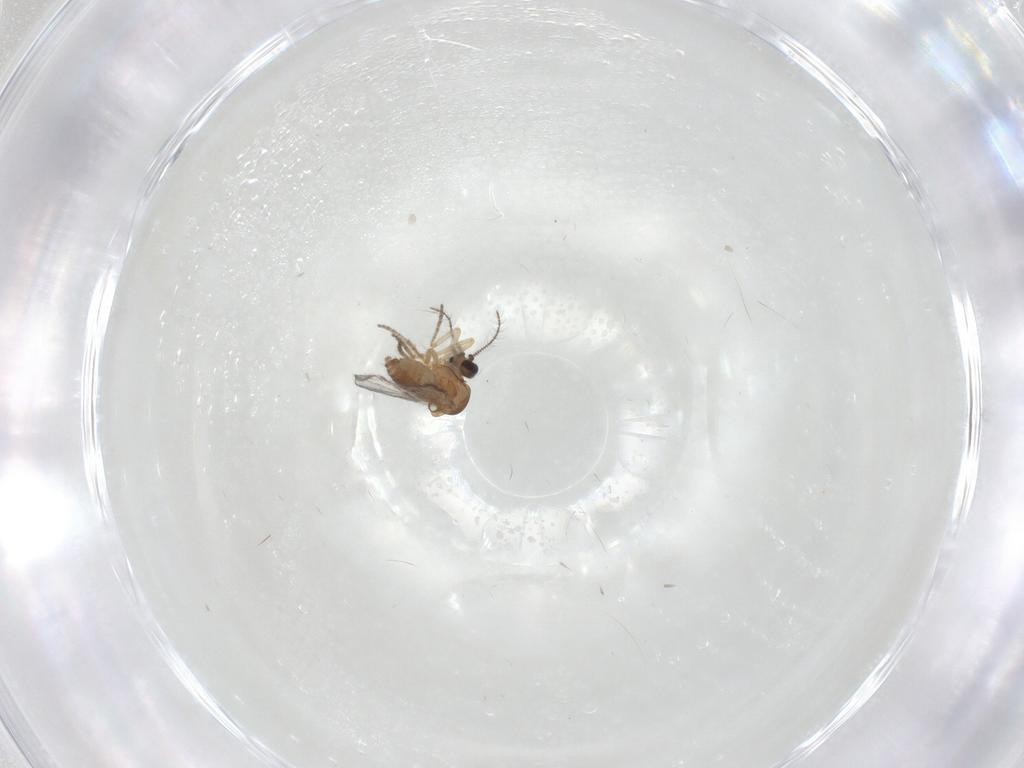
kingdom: Animalia
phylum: Arthropoda
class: Insecta
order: Diptera
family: Ceratopogonidae
